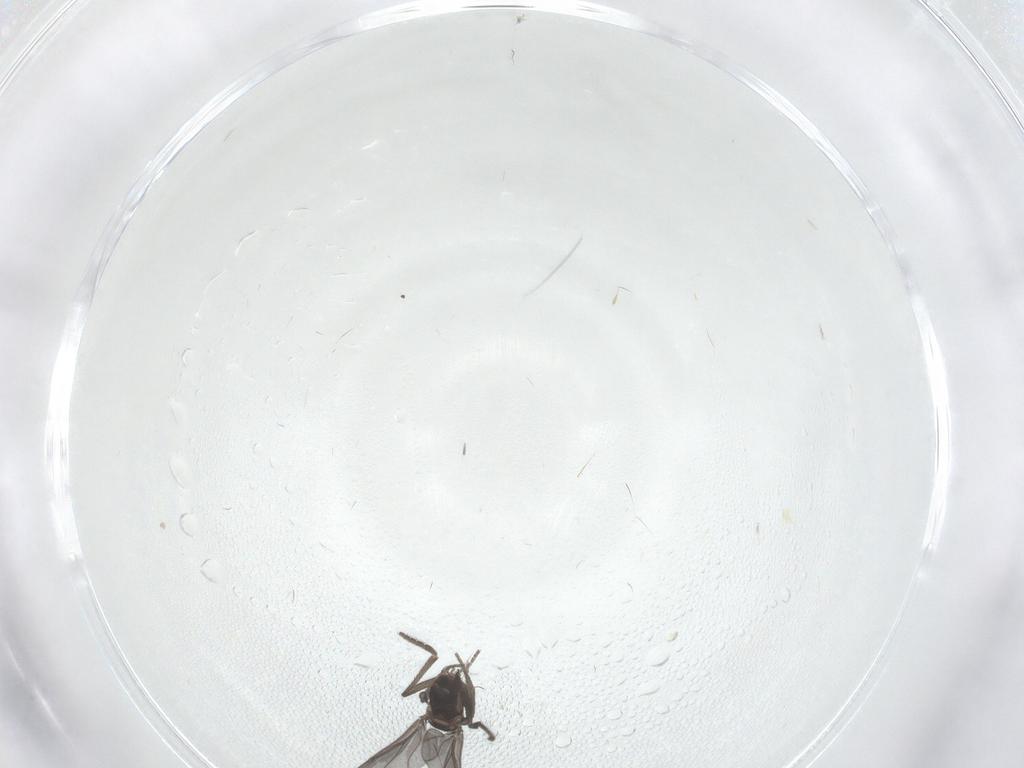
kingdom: Animalia
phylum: Arthropoda
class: Insecta
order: Diptera
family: Phoridae
